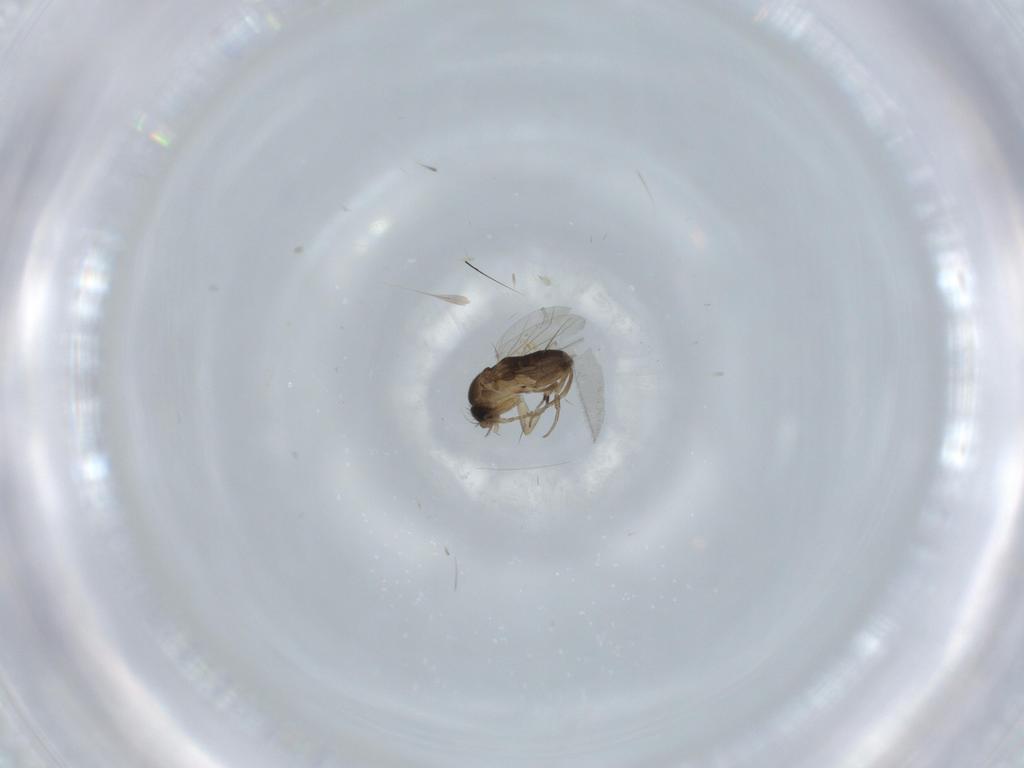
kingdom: Animalia
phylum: Arthropoda
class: Insecta
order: Diptera
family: Phoridae
